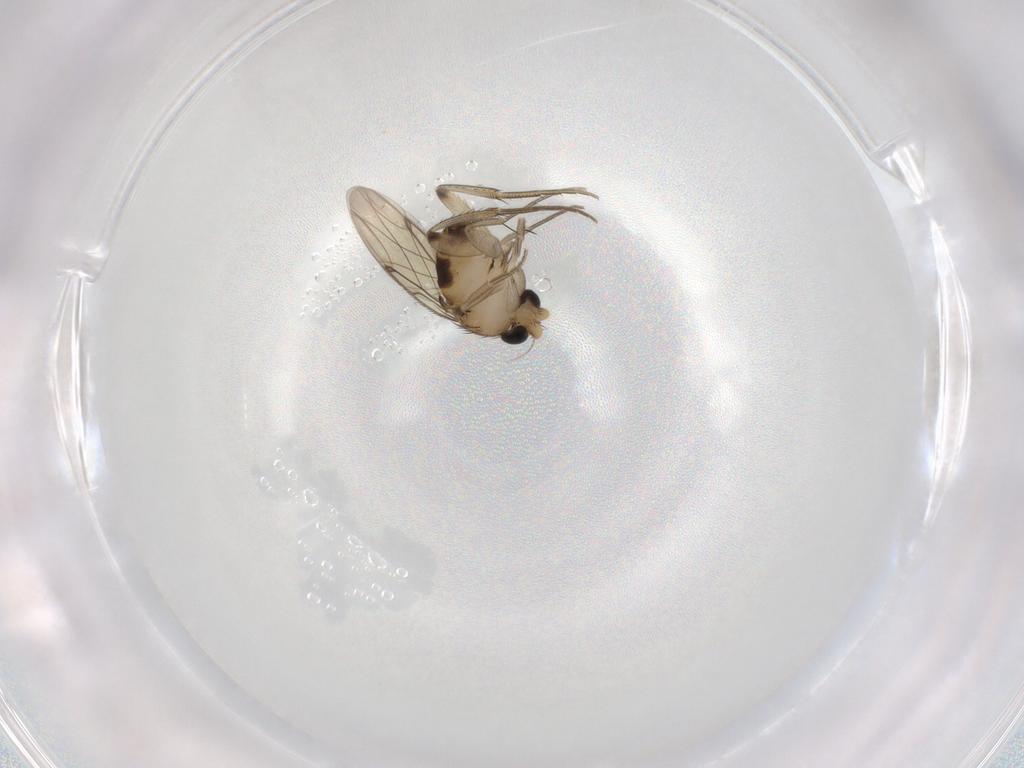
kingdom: Animalia
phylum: Arthropoda
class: Insecta
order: Diptera
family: Phoridae
